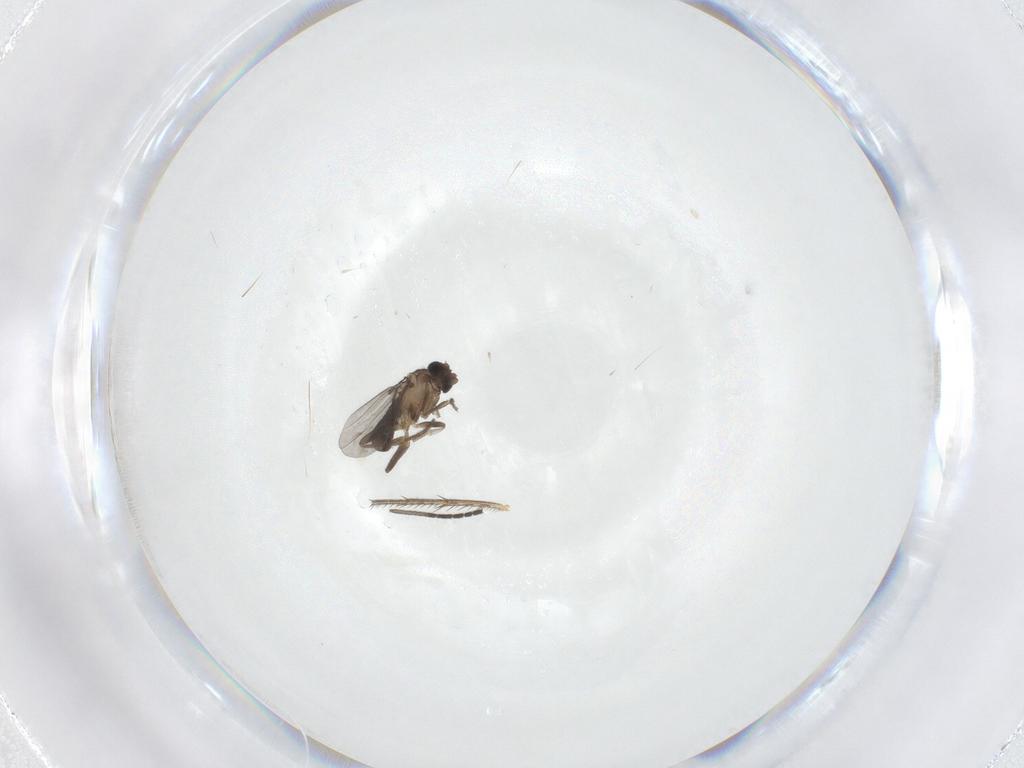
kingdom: Animalia
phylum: Arthropoda
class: Insecta
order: Diptera
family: Mycetophilidae
